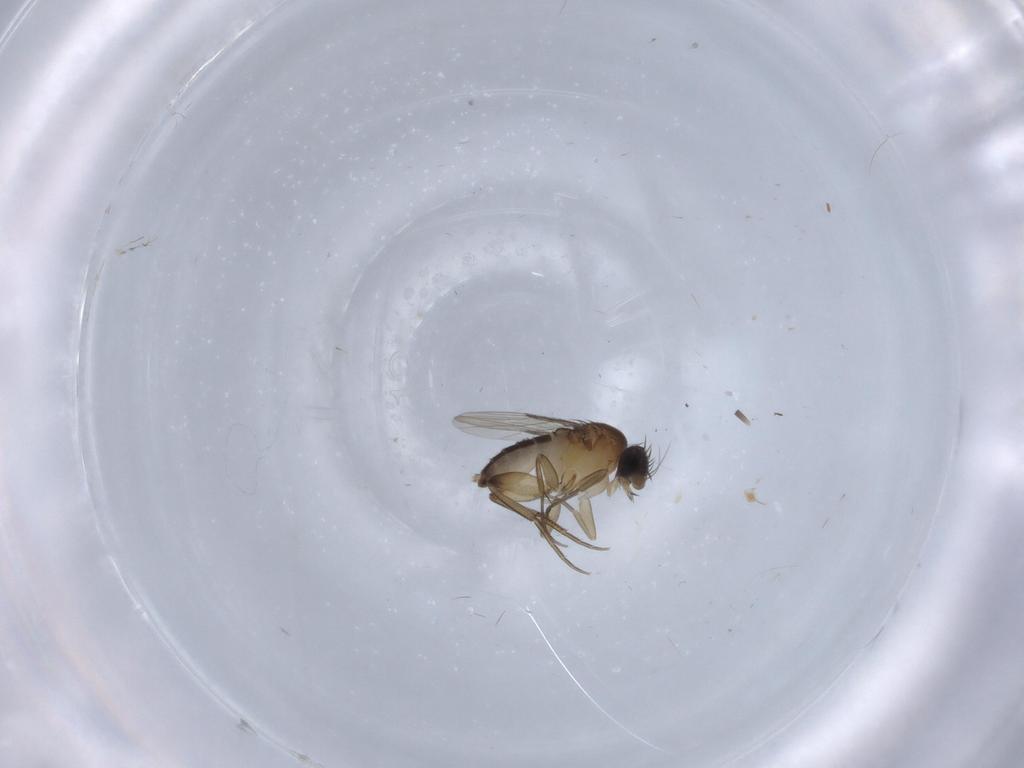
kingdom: Animalia
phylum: Arthropoda
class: Insecta
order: Diptera
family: Phoridae
